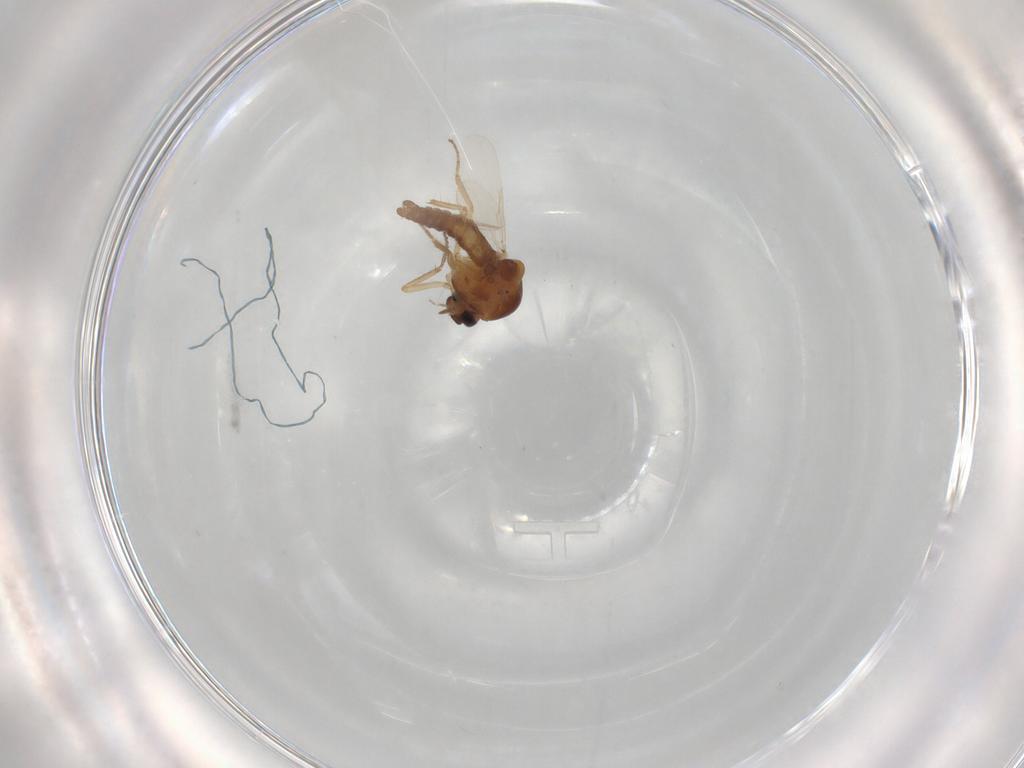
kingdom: Animalia
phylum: Arthropoda
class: Insecta
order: Diptera
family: Ceratopogonidae
